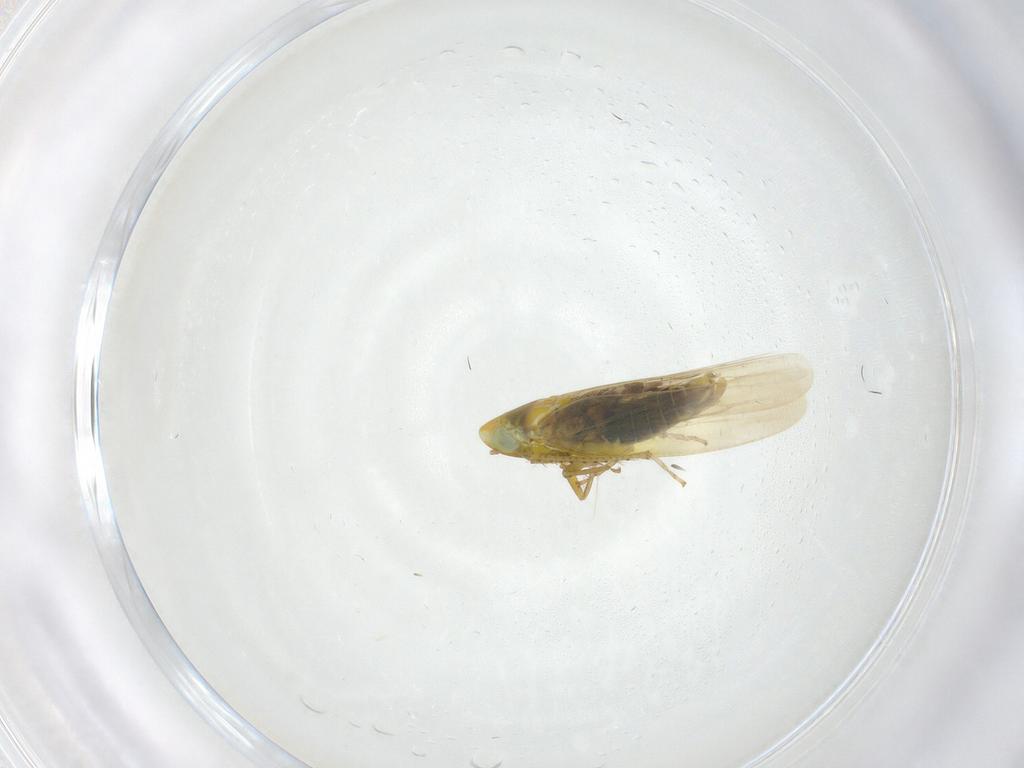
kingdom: Animalia
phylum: Arthropoda
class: Insecta
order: Hemiptera
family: Cicadellidae
